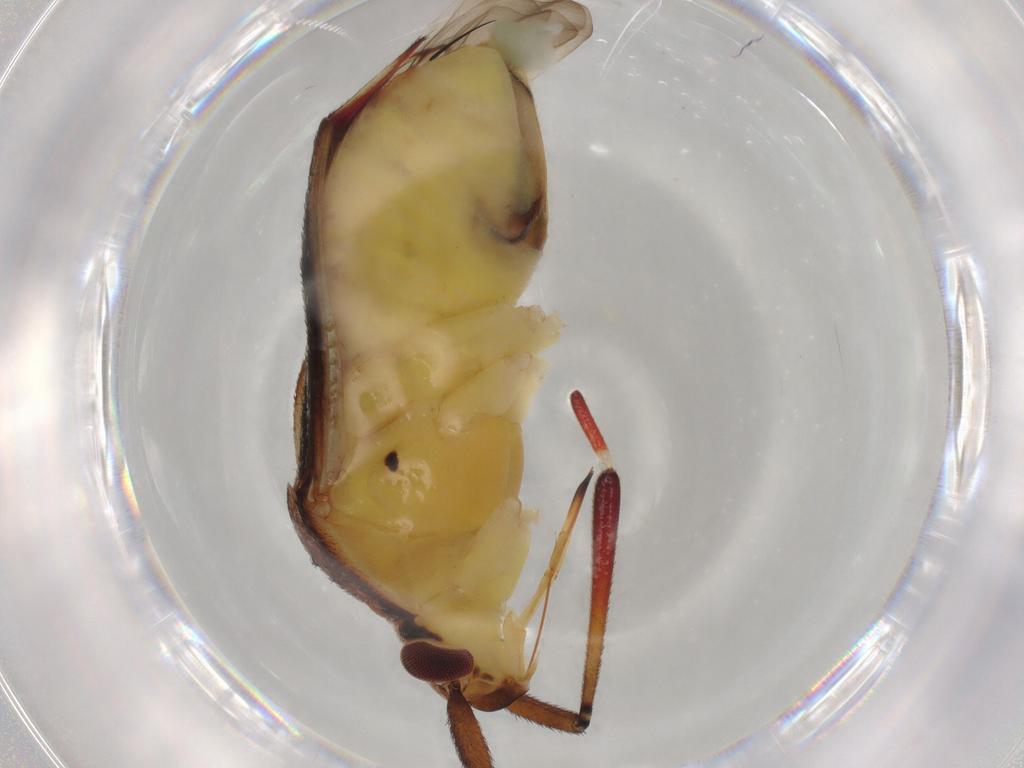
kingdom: Animalia
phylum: Arthropoda
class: Insecta
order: Hemiptera
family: Miridae
